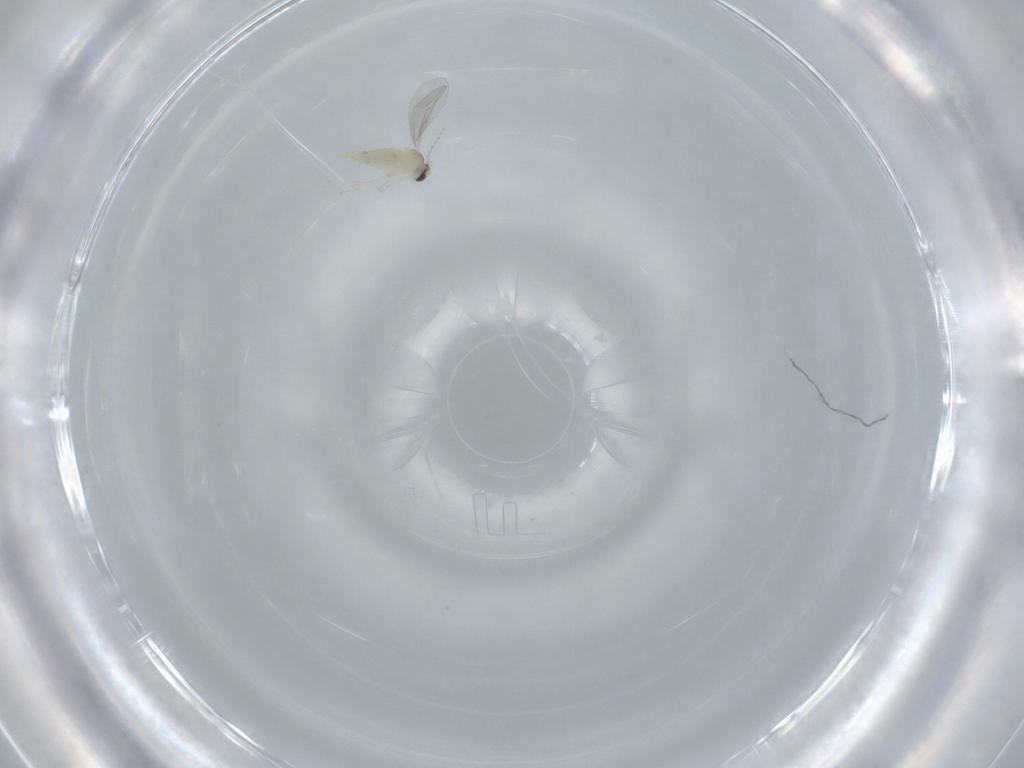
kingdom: Animalia
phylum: Arthropoda
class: Insecta
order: Diptera
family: Cecidomyiidae
